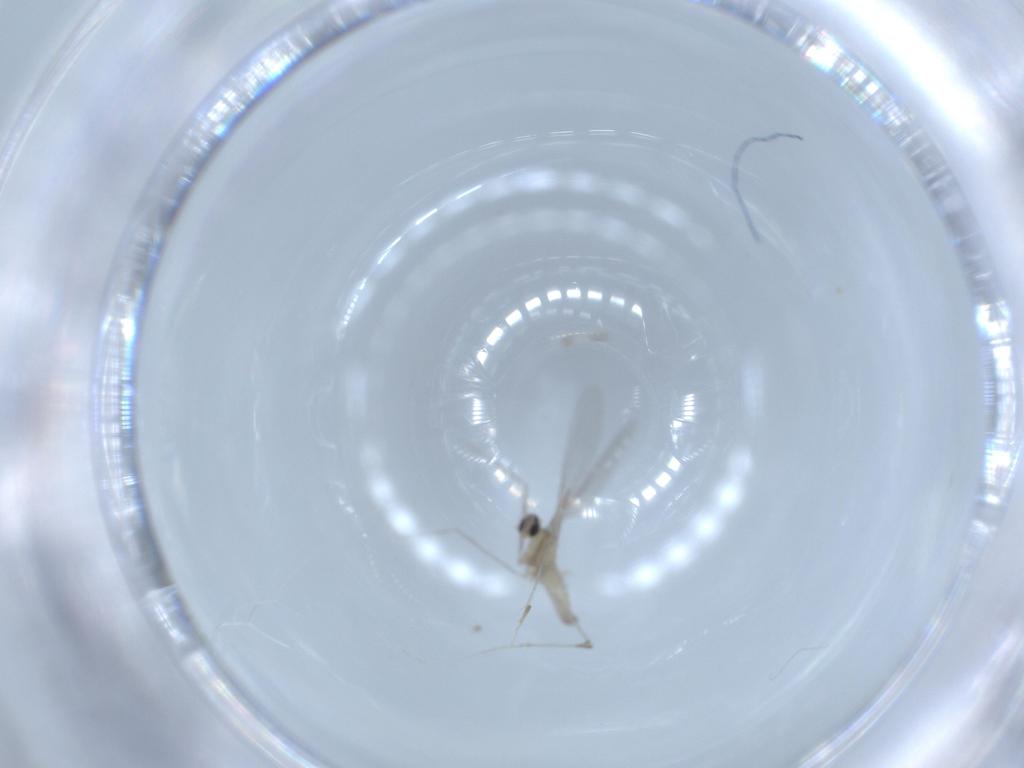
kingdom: Animalia
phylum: Arthropoda
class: Insecta
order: Diptera
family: Cecidomyiidae
